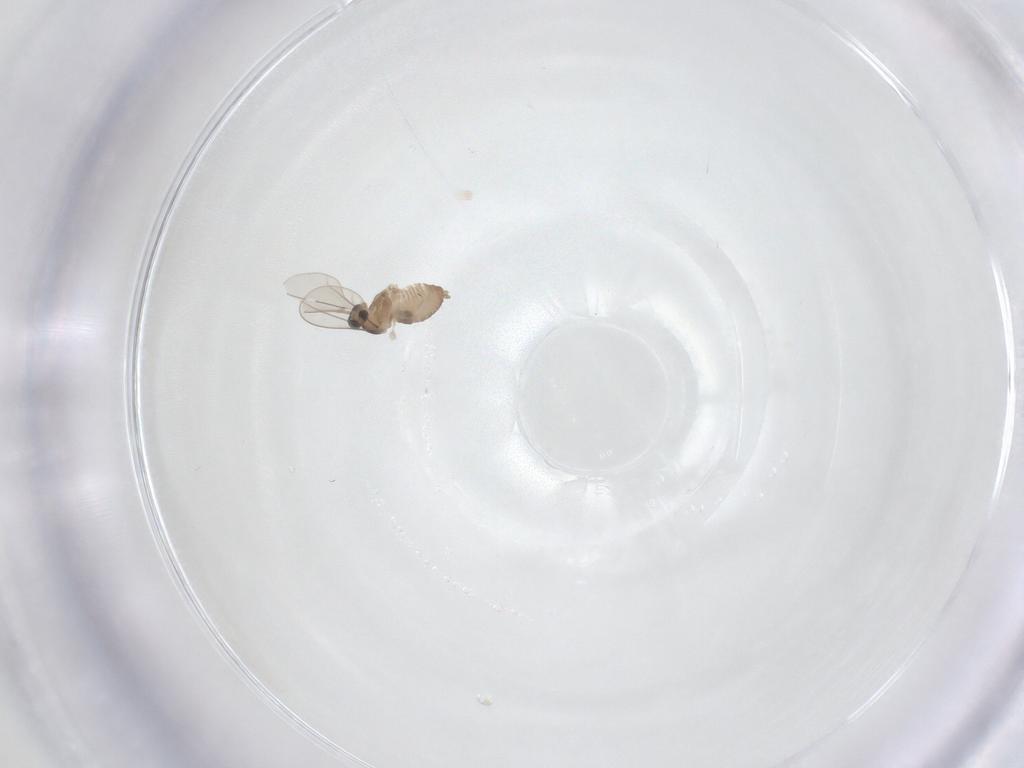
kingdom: Animalia
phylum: Arthropoda
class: Insecta
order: Diptera
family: Cecidomyiidae
